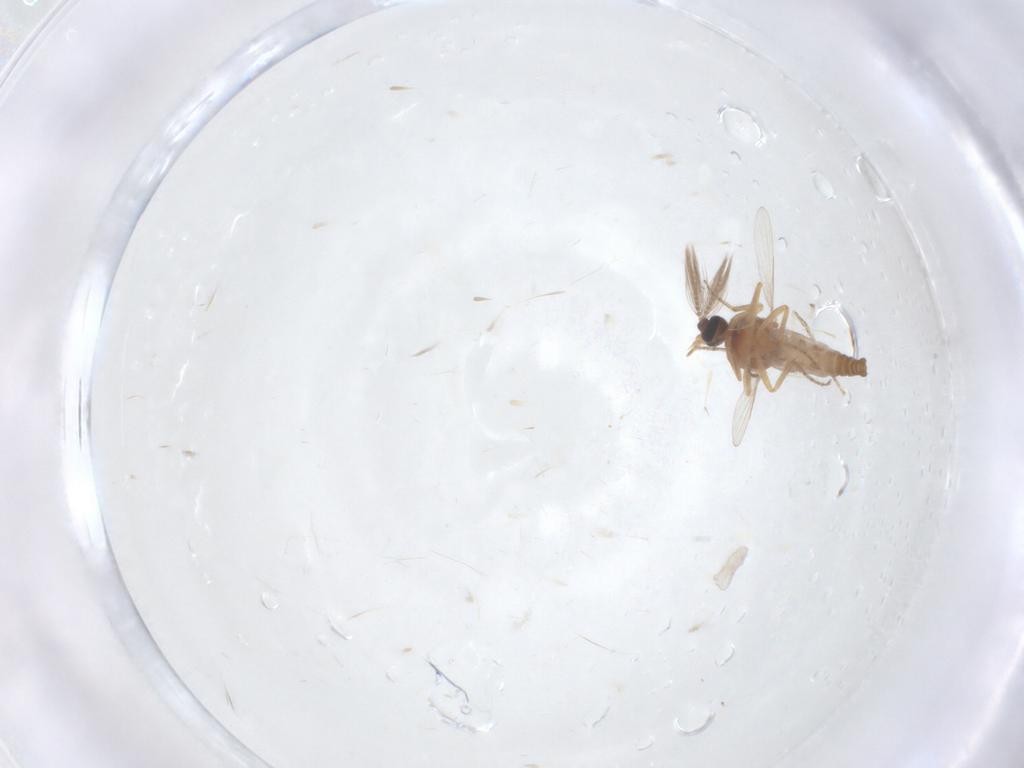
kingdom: Animalia
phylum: Arthropoda
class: Insecta
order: Diptera
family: Ceratopogonidae
